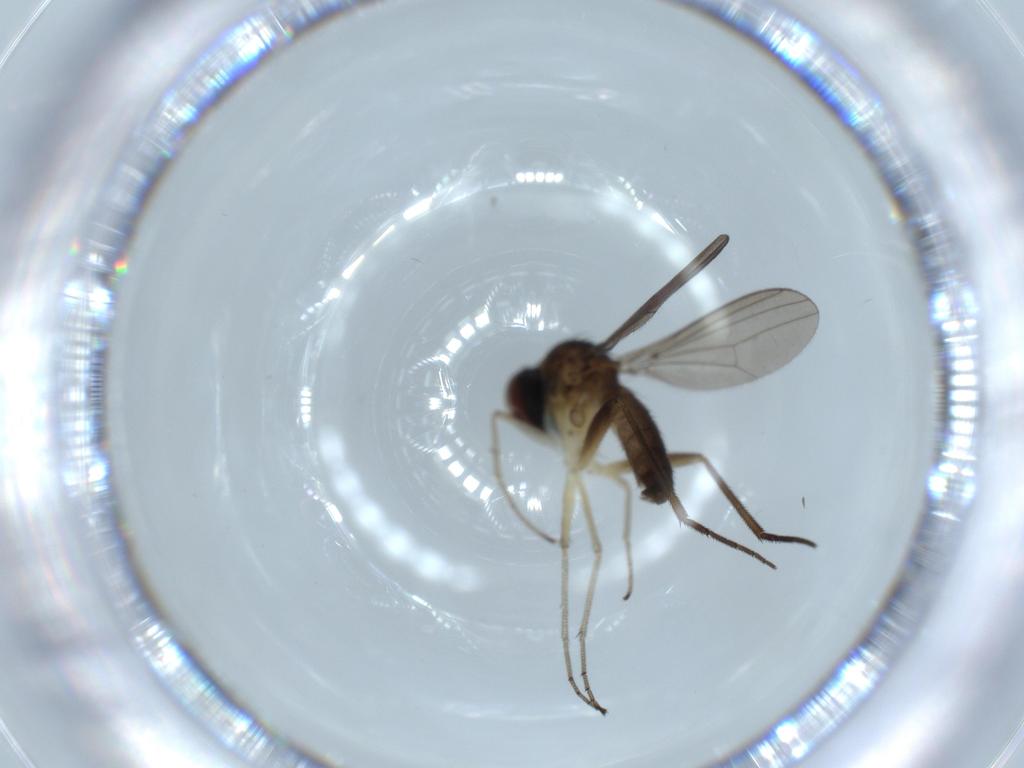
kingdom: Animalia
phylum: Arthropoda
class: Insecta
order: Diptera
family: Dolichopodidae
